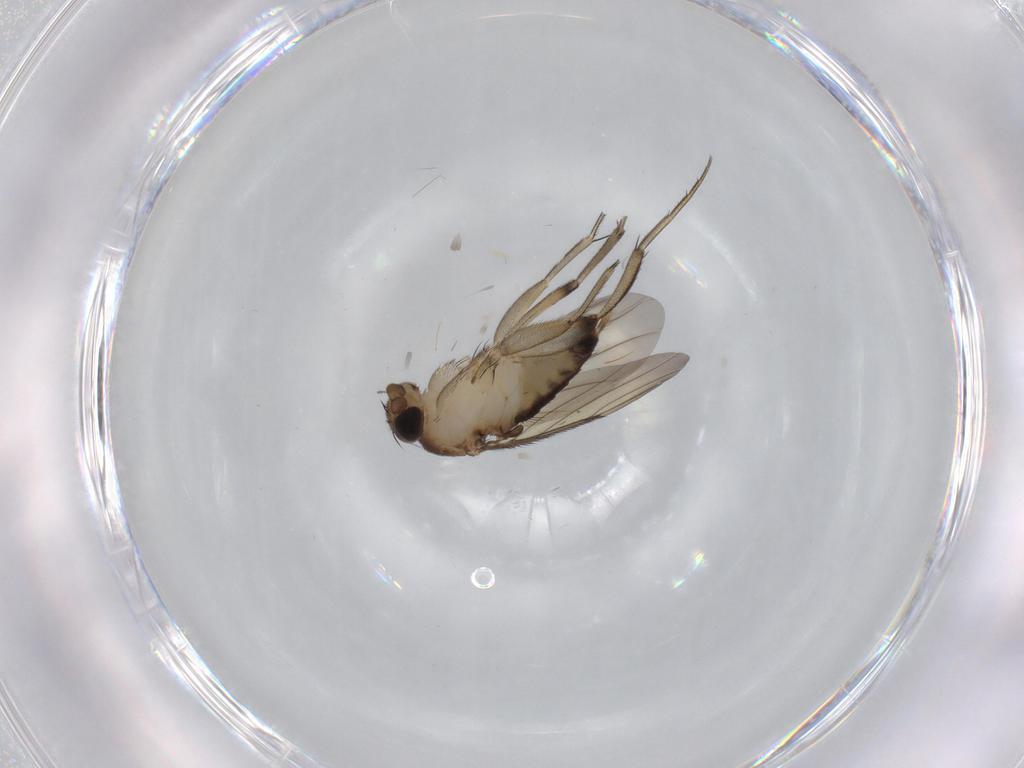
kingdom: Animalia
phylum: Arthropoda
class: Insecta
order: Diptera
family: Phoridae
